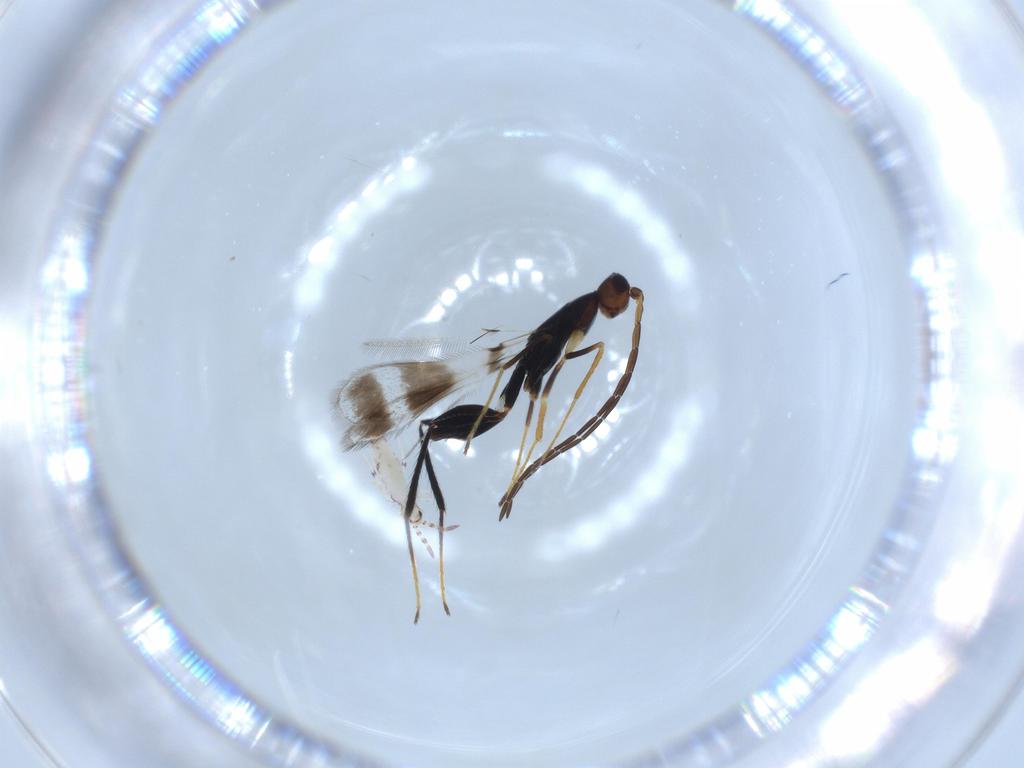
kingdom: Animalia
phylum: Arthropoda
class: Collembola
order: Entomobryomorpha
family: Entomobryidae
